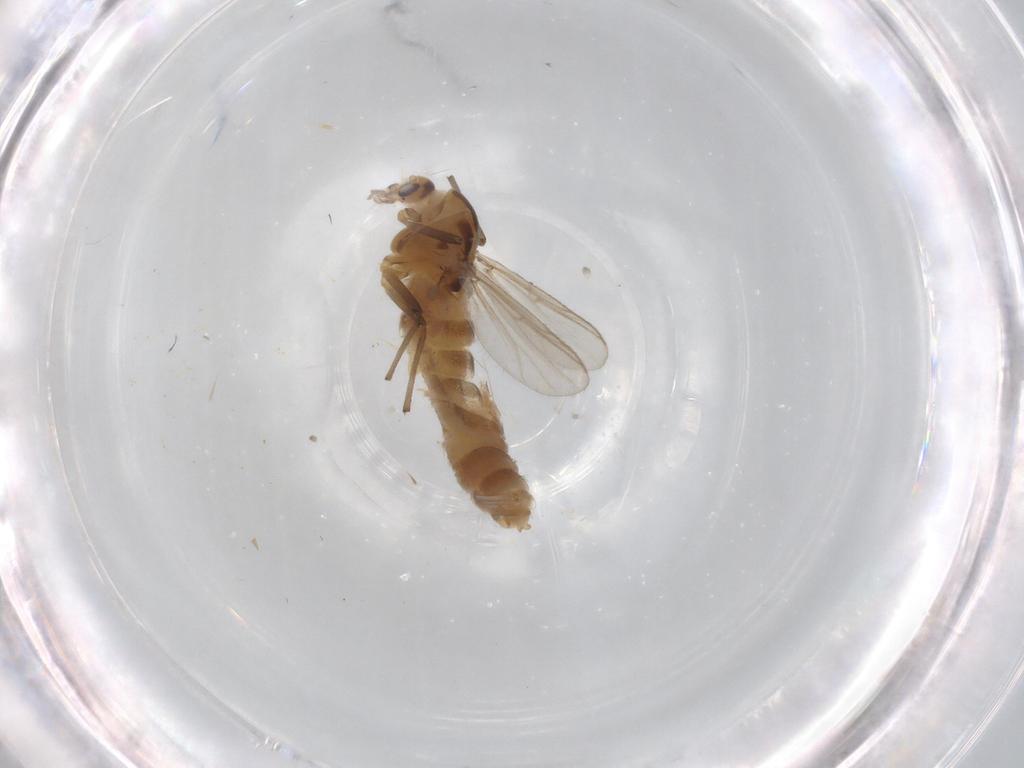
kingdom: Animalia
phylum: Arthropoda
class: Insecta
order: Diptera
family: Chironomidae
